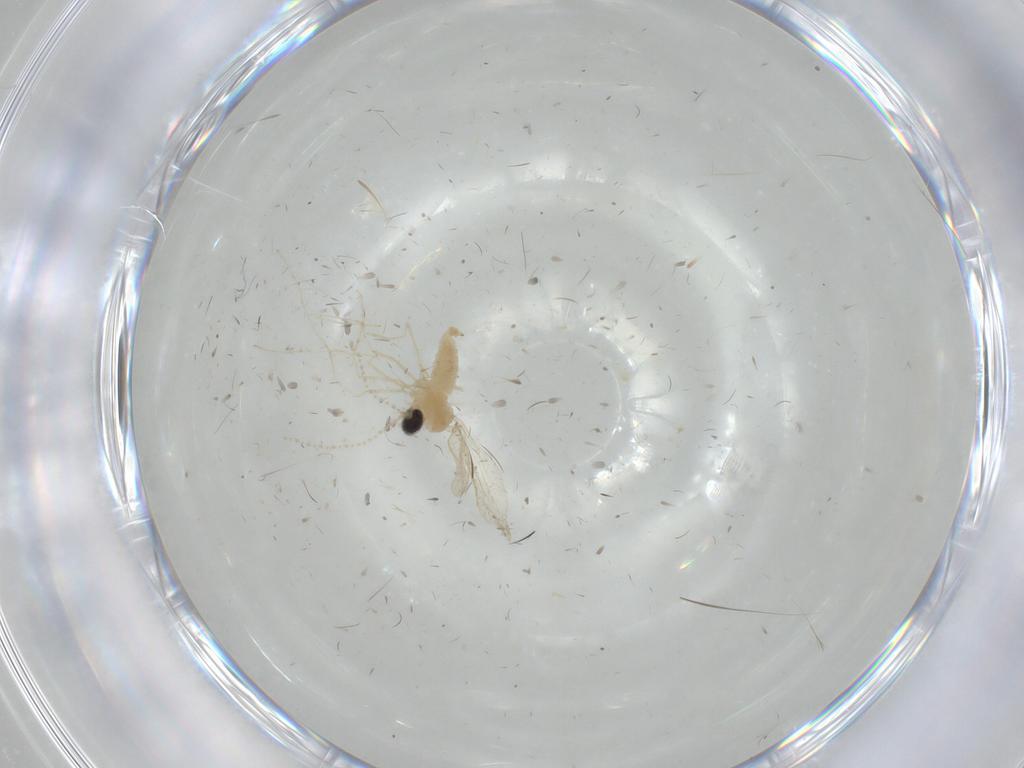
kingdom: Animalia
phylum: Arthropoda
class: Insecta
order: Diptera
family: Cecidomyiidae
